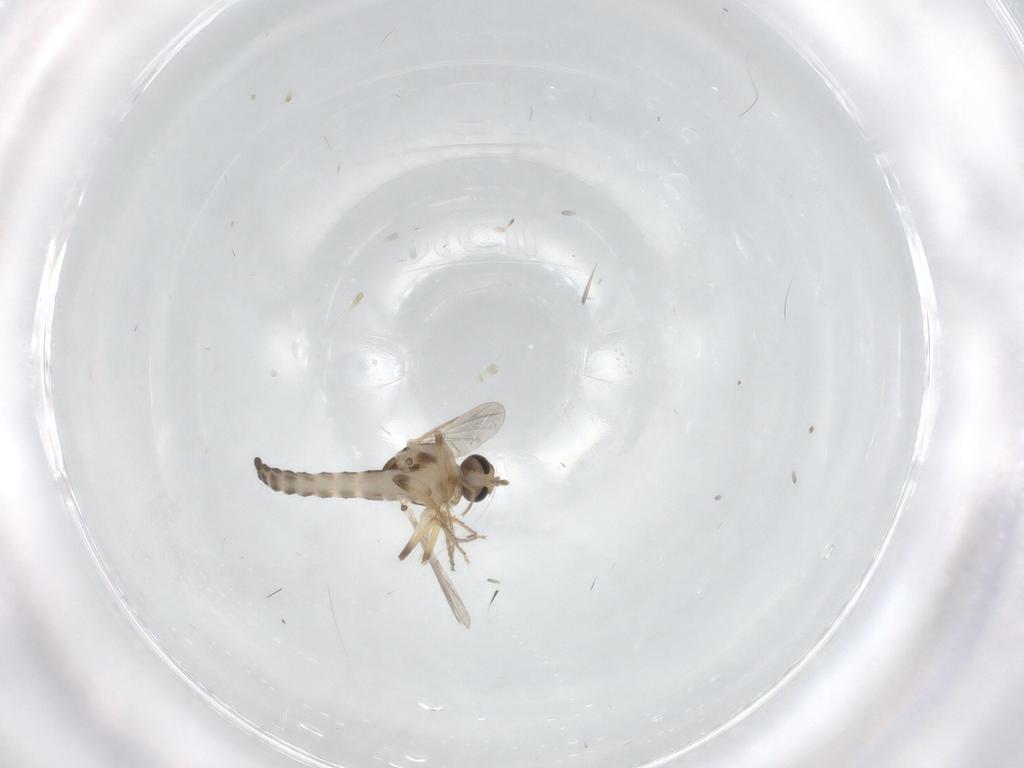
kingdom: Animalia
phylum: Arthropoda
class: Insecta
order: Diptera
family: Ceratopogonidae
